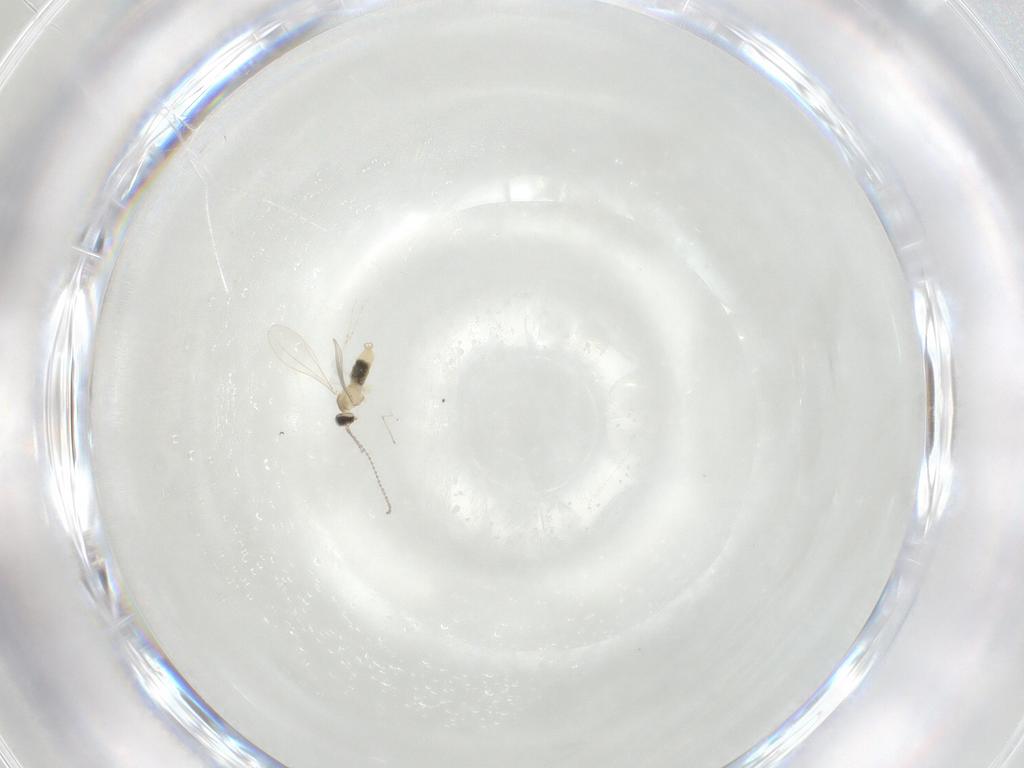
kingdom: Animalia
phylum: Arthropoda
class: Insecta
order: Diptera
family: Cecidomyiidae
